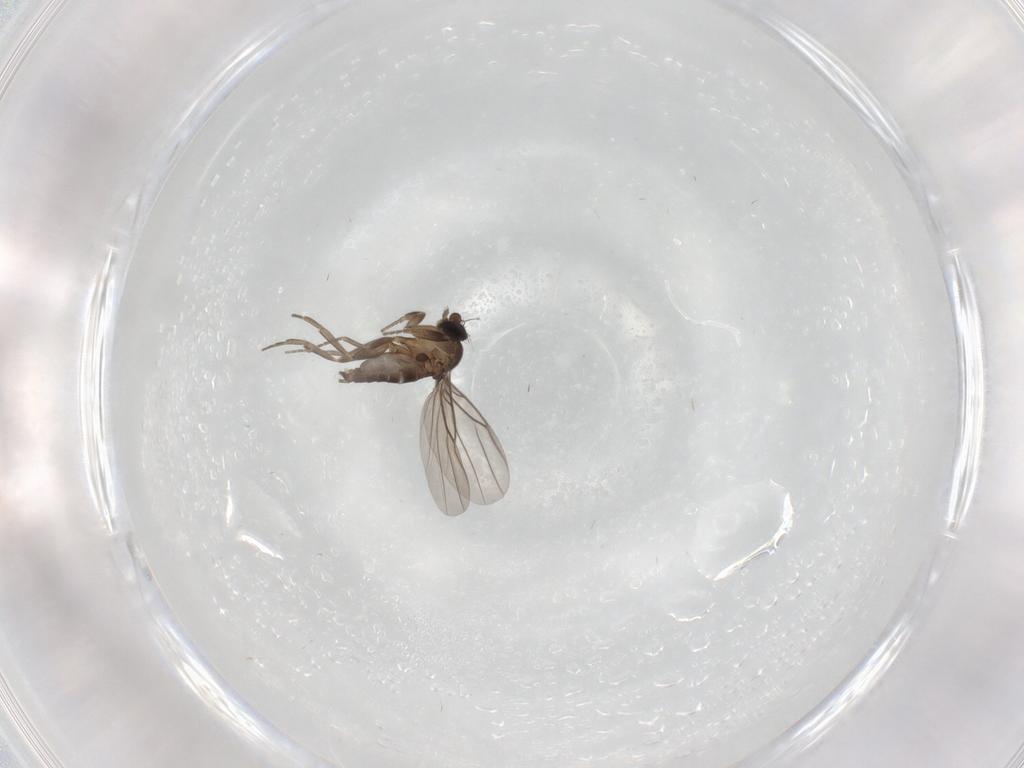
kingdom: Animalia
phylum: Arthropoda
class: Insecta
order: Diptera
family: Phoridae
